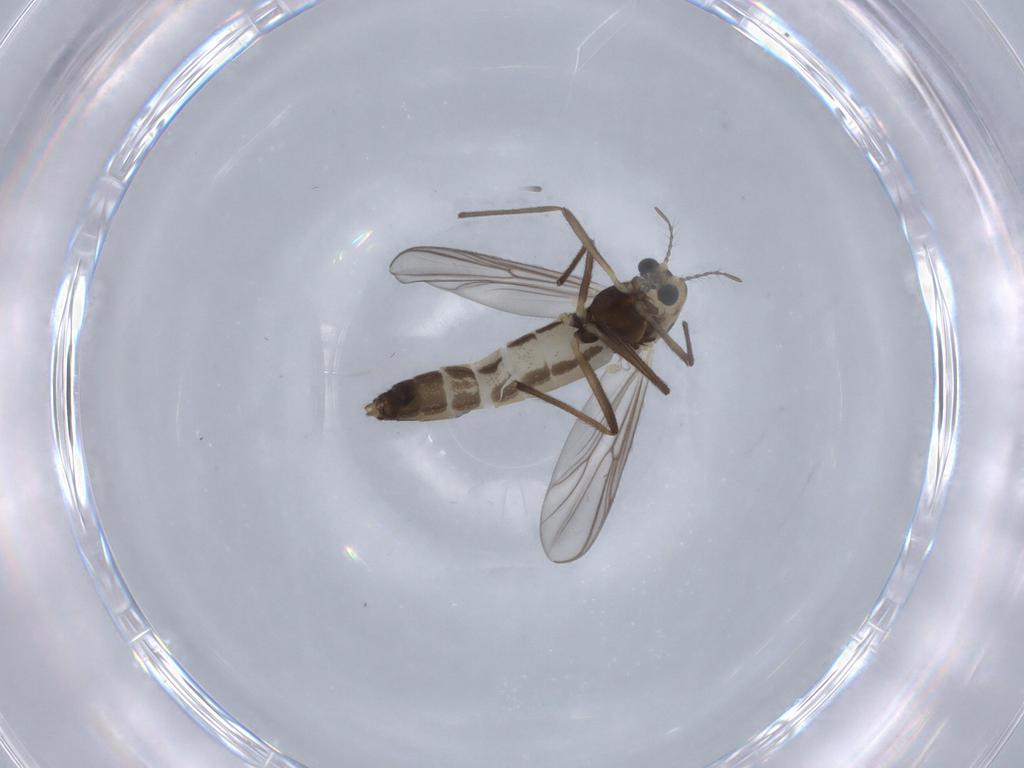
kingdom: Animalia
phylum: Arthropoda
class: Insecta
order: Diptera
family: Chironomidae
